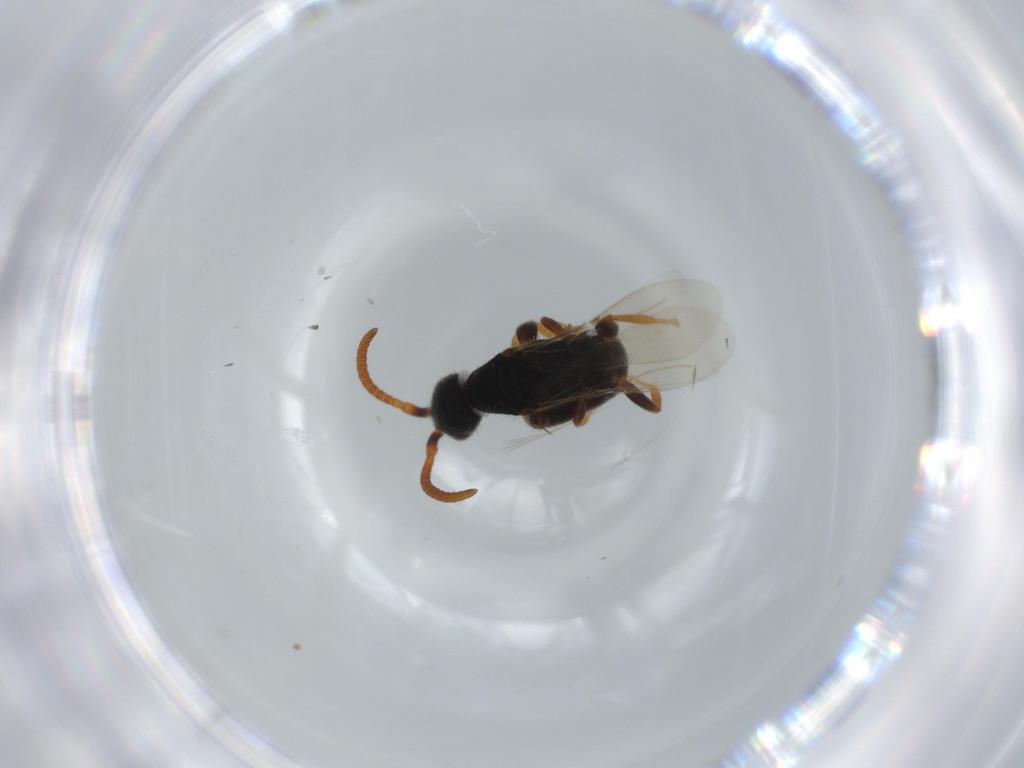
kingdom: Animalia
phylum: Arthropoda
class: Insecta
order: Hymenoptera
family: Bethylidae
